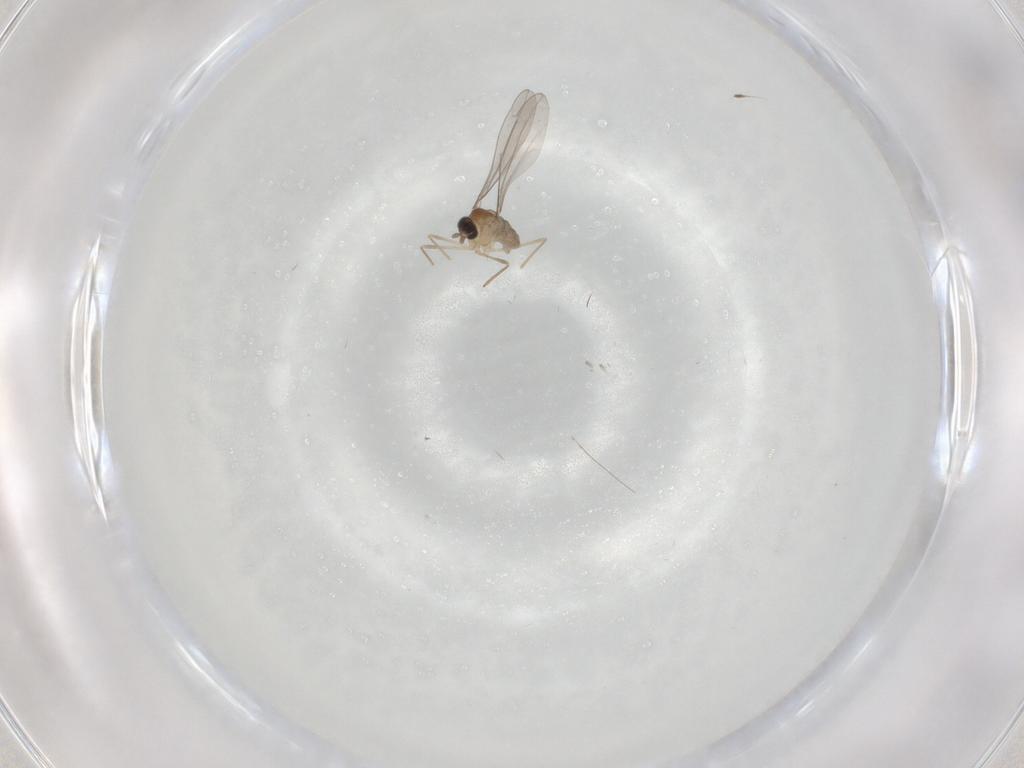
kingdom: Animalia
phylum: Arthropoda
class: Insecta
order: Diptera
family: Cecidomyiidae
